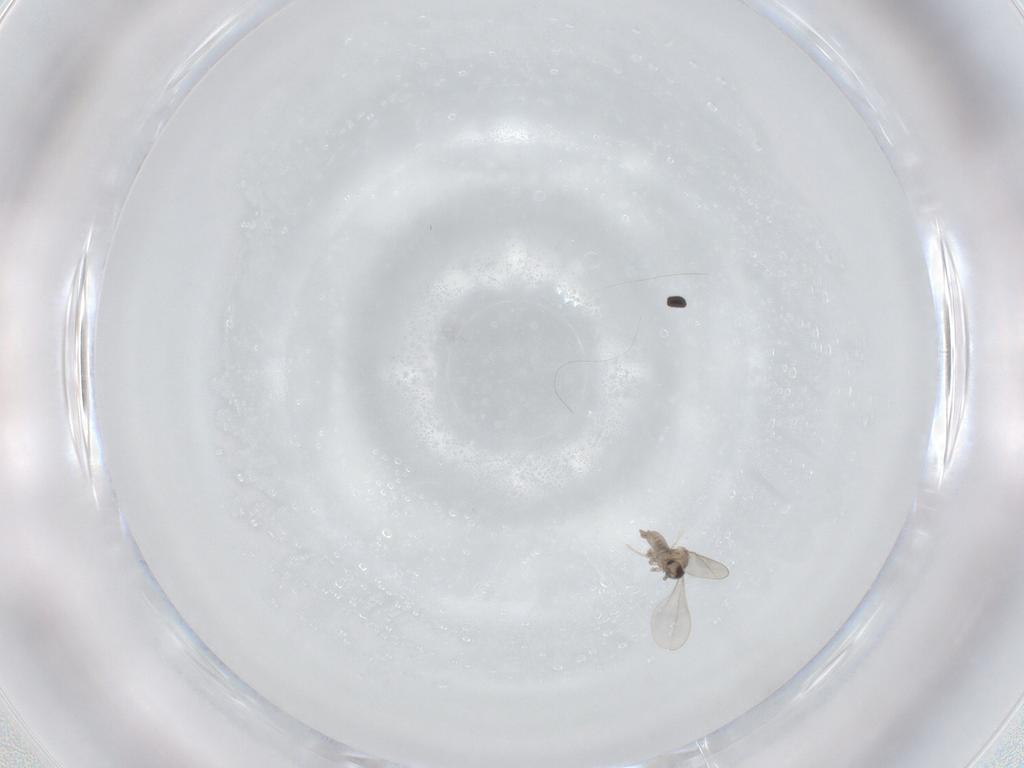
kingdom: Animalia
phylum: Arthropoda
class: Insecta
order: Diptera
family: Cecidomyiidae
